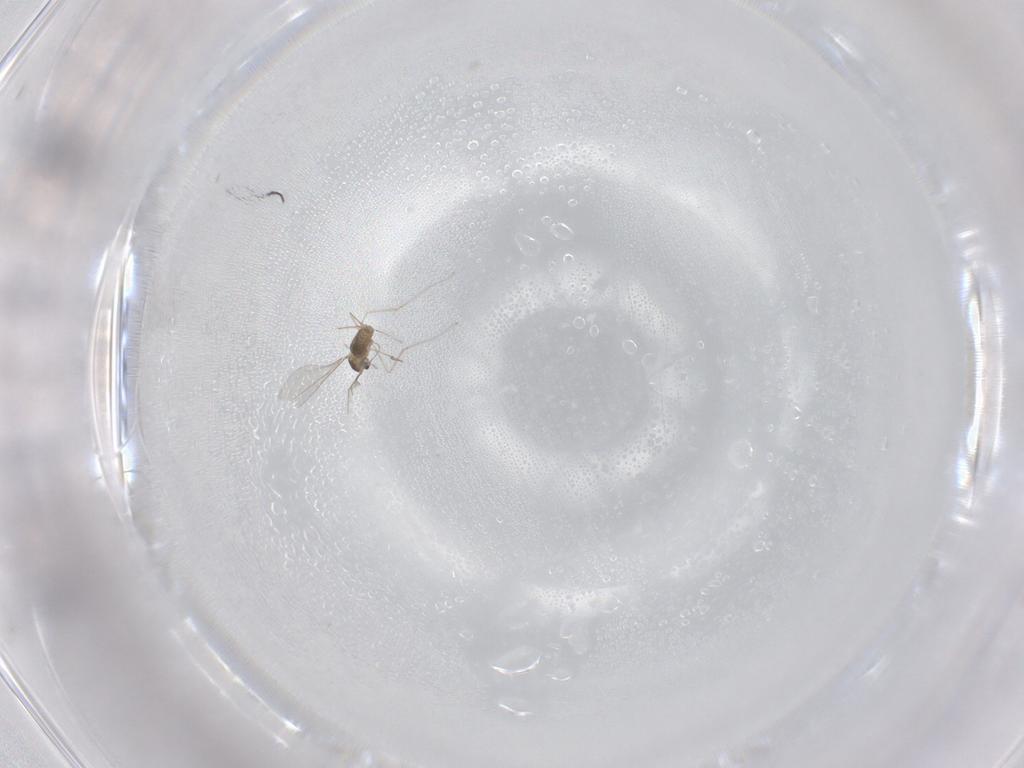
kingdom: Animalia
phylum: Arthropoda
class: Insecta
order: Diptera
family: Cecidomyiidae
